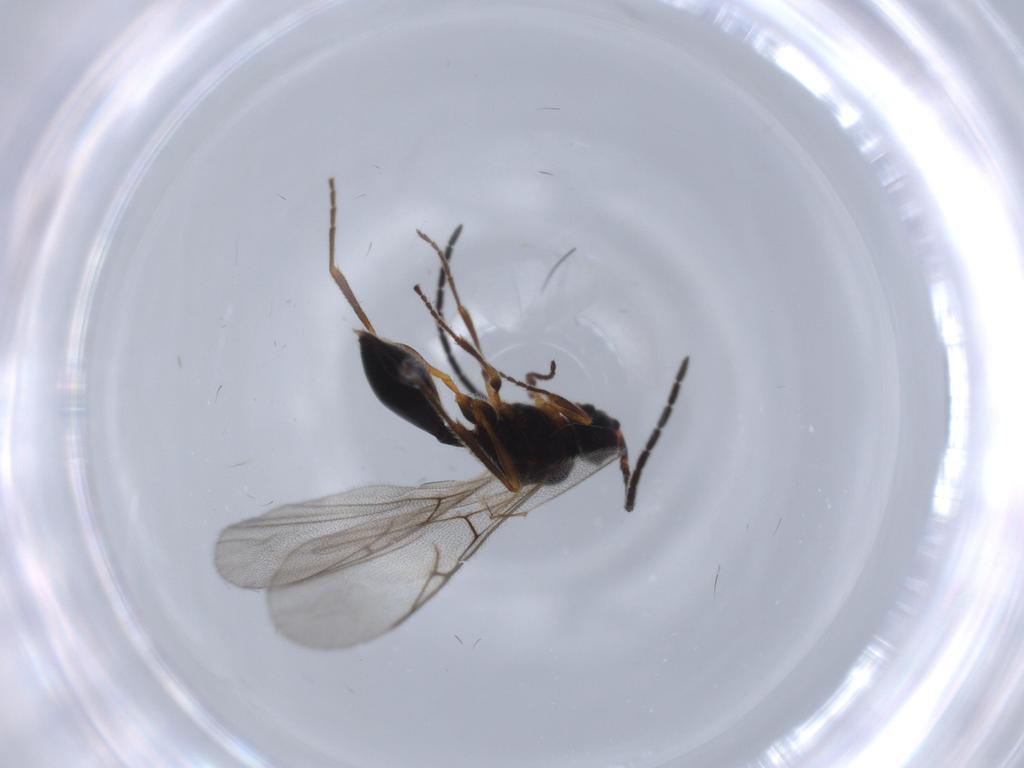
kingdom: Animalia
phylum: Arthropoda
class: Insecta
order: Hymenoptera
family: Diapriidae
